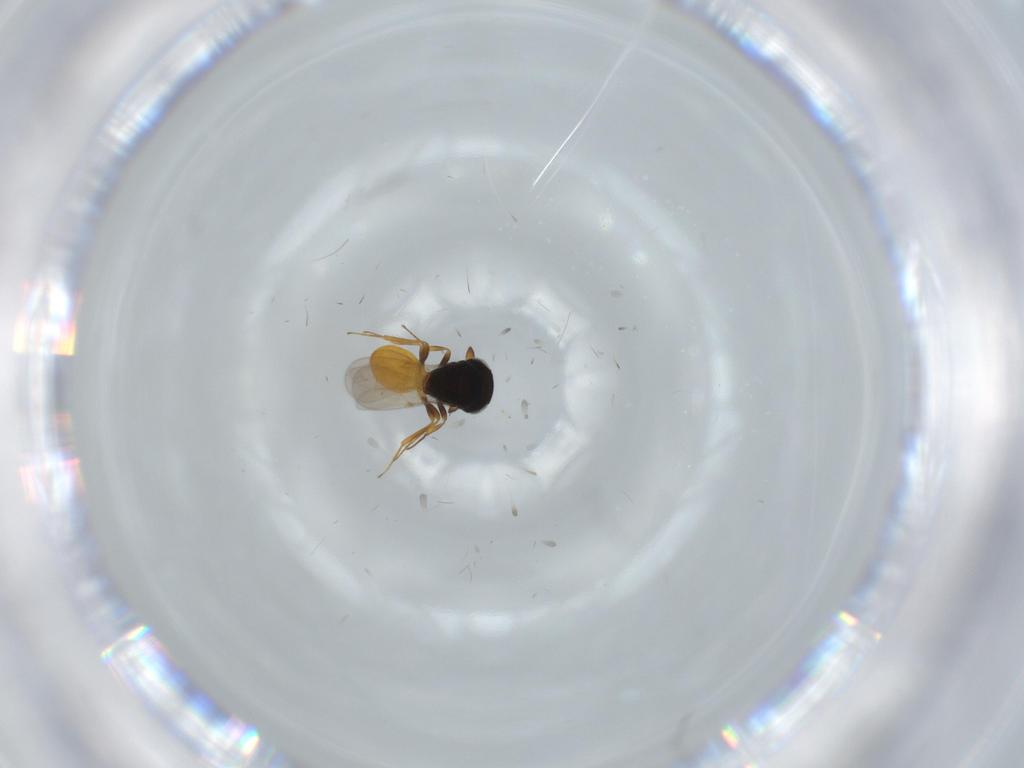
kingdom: Animalia
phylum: Arthropoda
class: Insecta
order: Hymenoptera
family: Scelionidae
